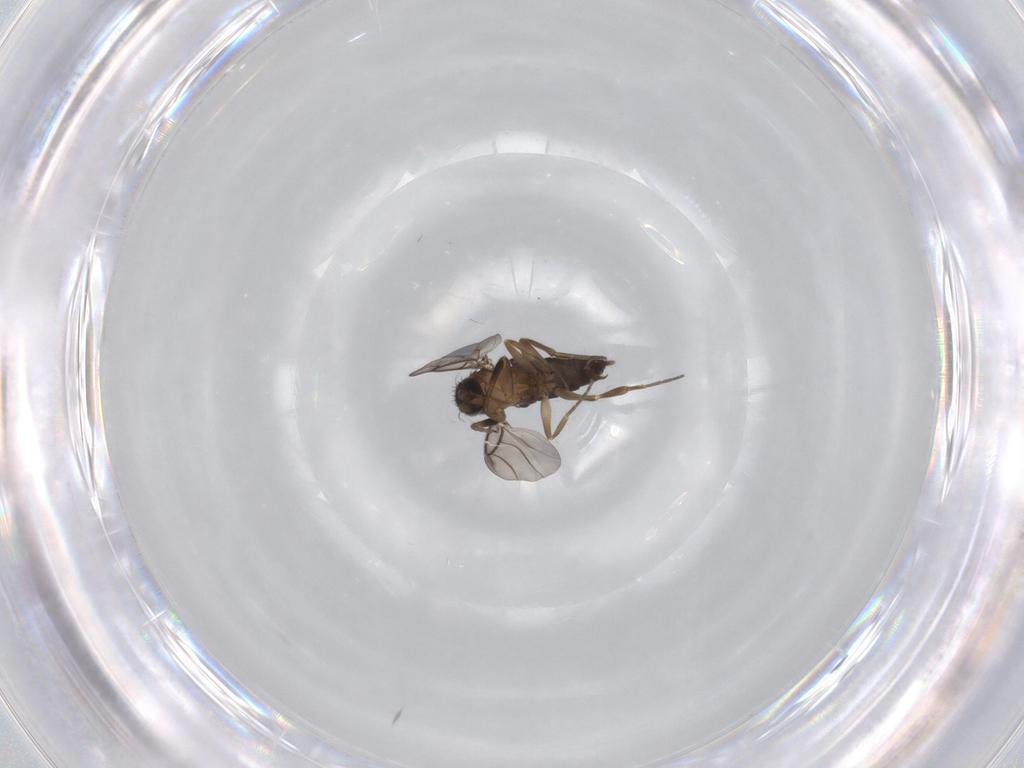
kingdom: Animalia
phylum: Arthropoda
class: Insecta
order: Diptera
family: Phoridae
